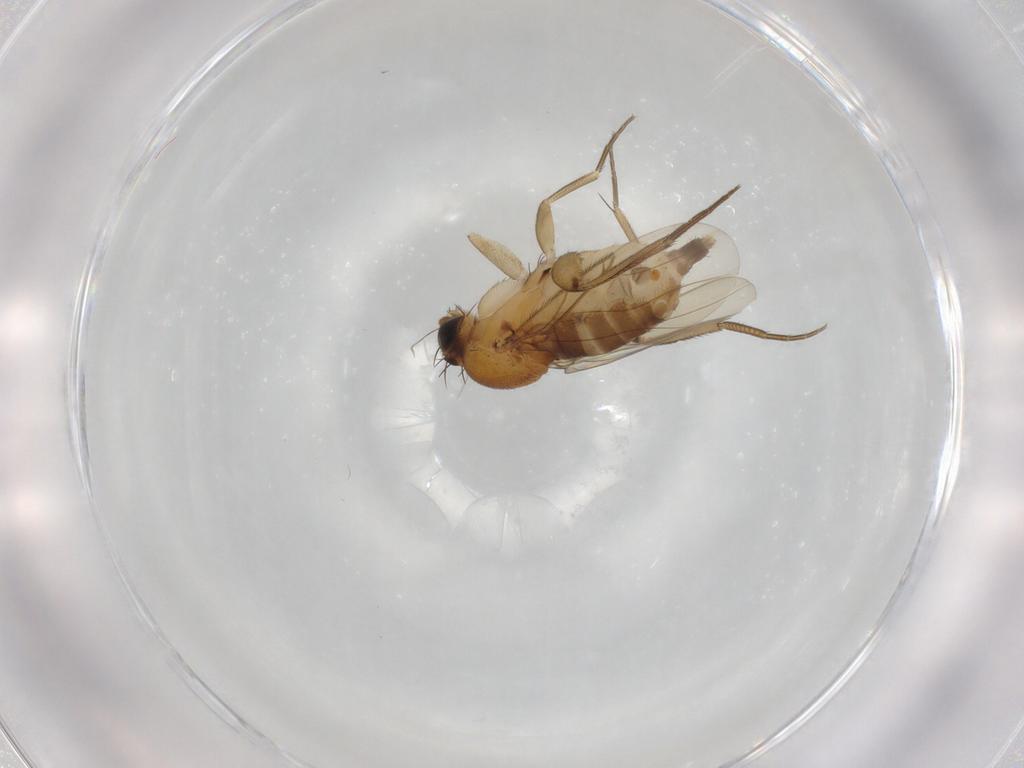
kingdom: Animalia
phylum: Arthropoda
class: Insecta
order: Diptera
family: Phoridae
